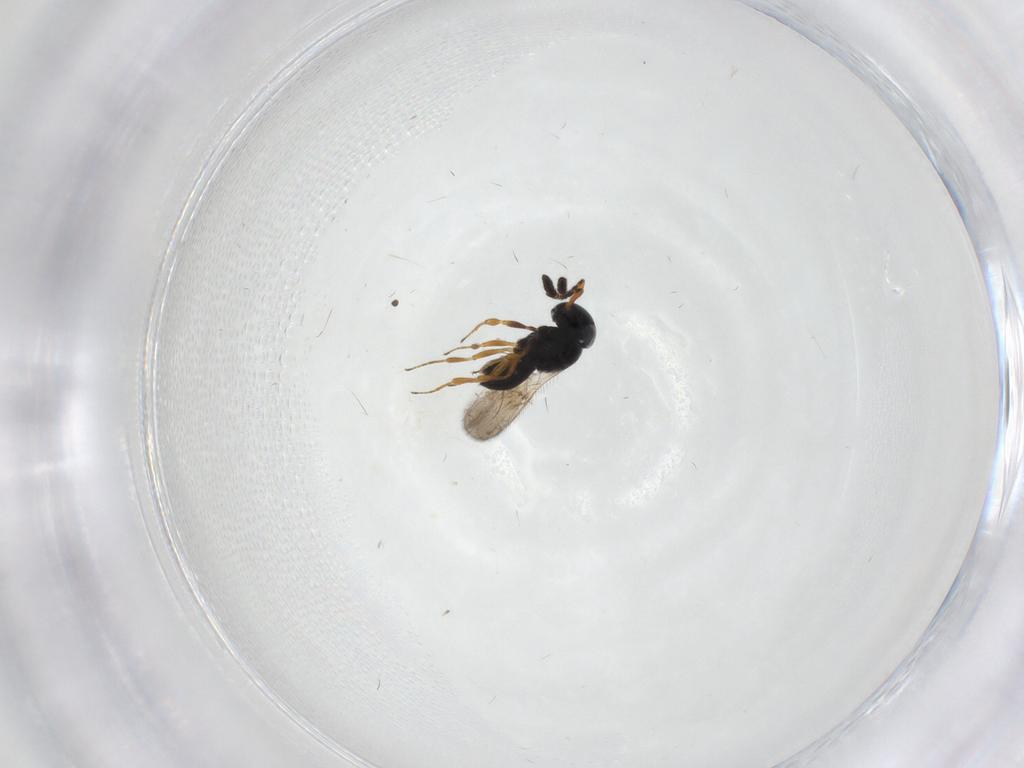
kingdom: Animalia
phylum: Arthropoda
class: Insecta
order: Hymenoptera
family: Scelionidae
